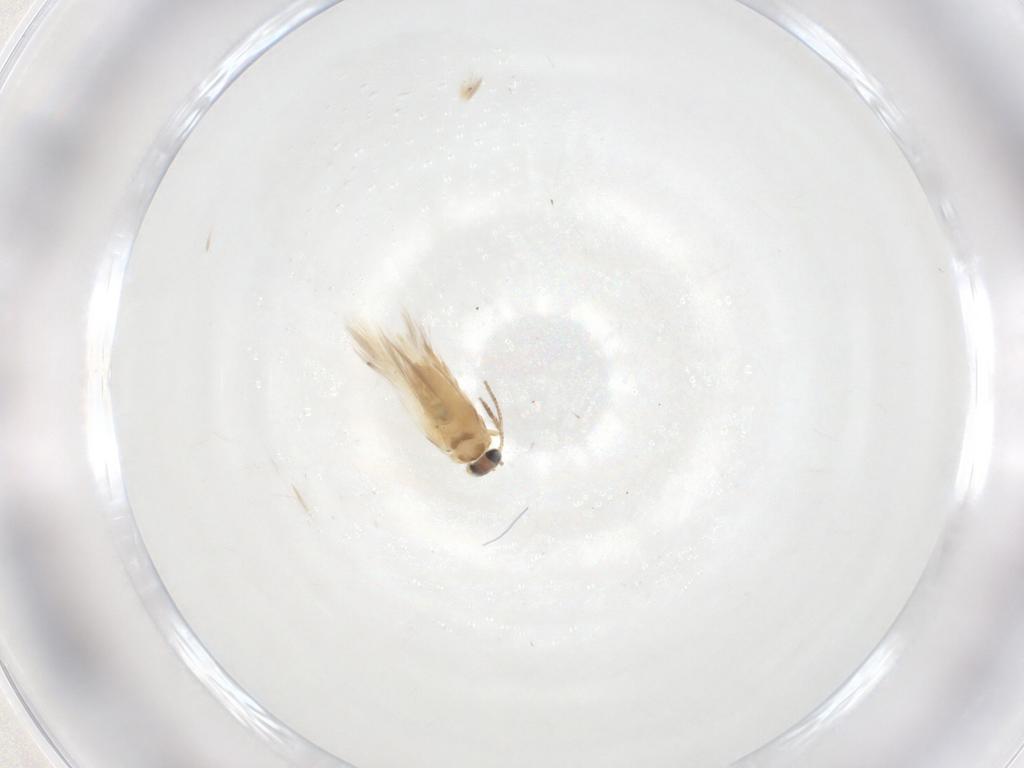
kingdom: Animalia
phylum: Arthropoda
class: Insecta
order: Lepidoptera
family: Crambidae
